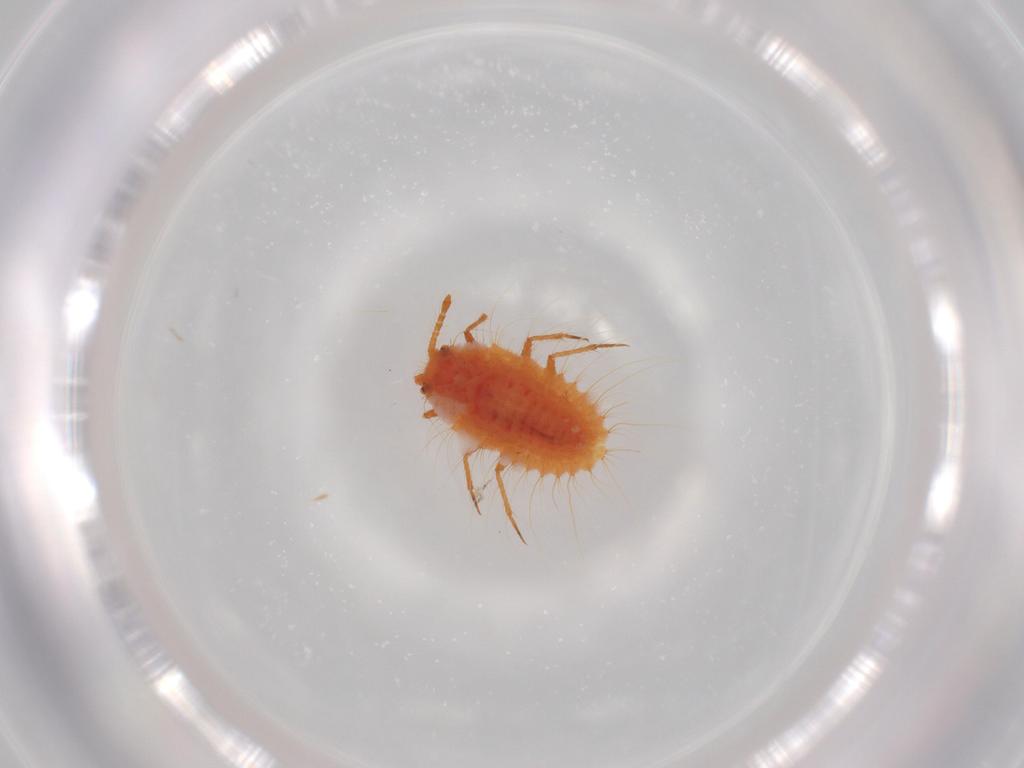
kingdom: Animalia
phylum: Arthropoda
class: Insecta
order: Hemiptera
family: Coccoidea_incertae_sedis
